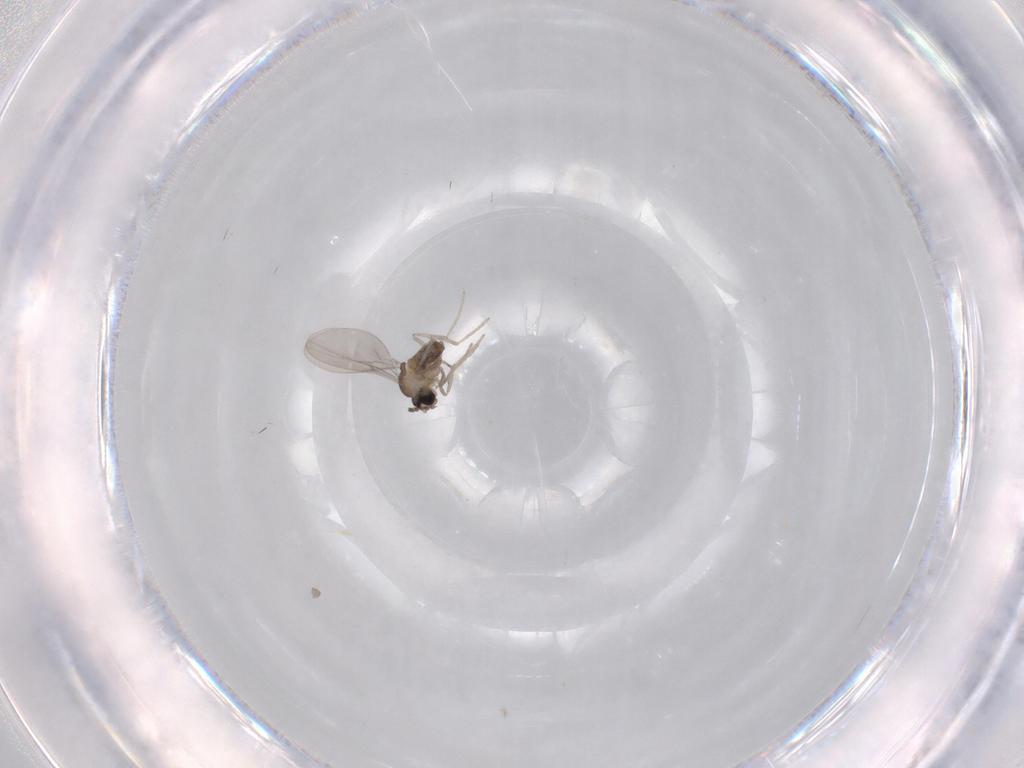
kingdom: Animalia
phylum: Arthropoda
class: Insecta
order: Diptera
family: Cecidomyiidae
